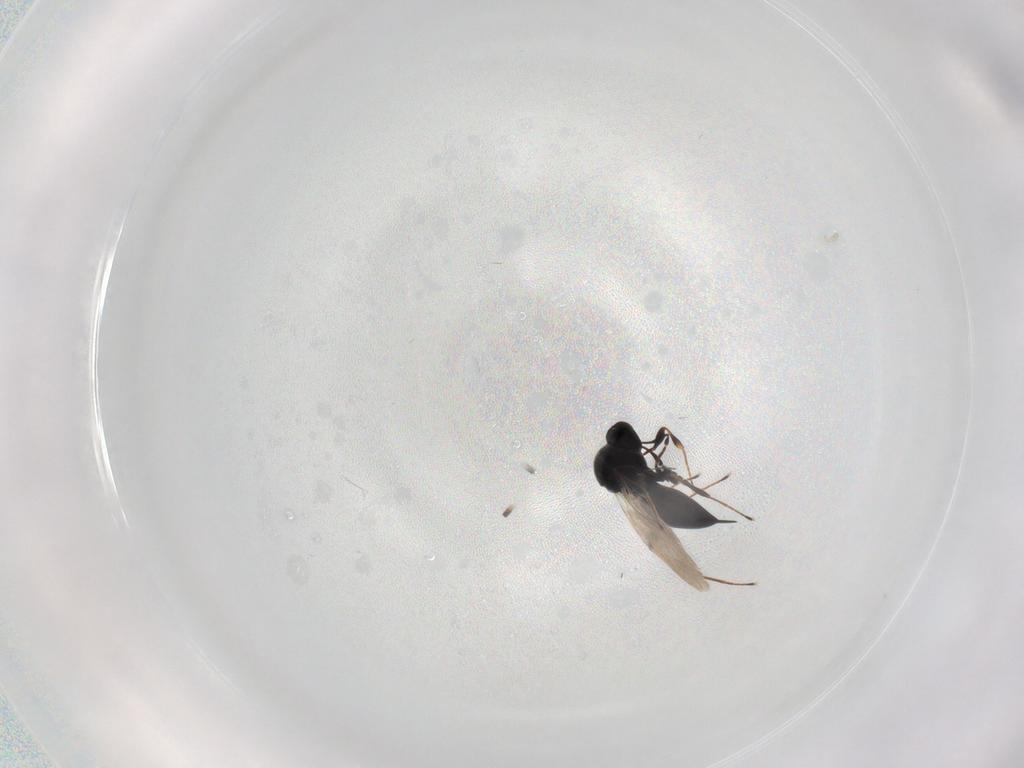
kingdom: Animalia
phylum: Arthropoda
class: Insecta
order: Hymenoptera
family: Platygastridae
